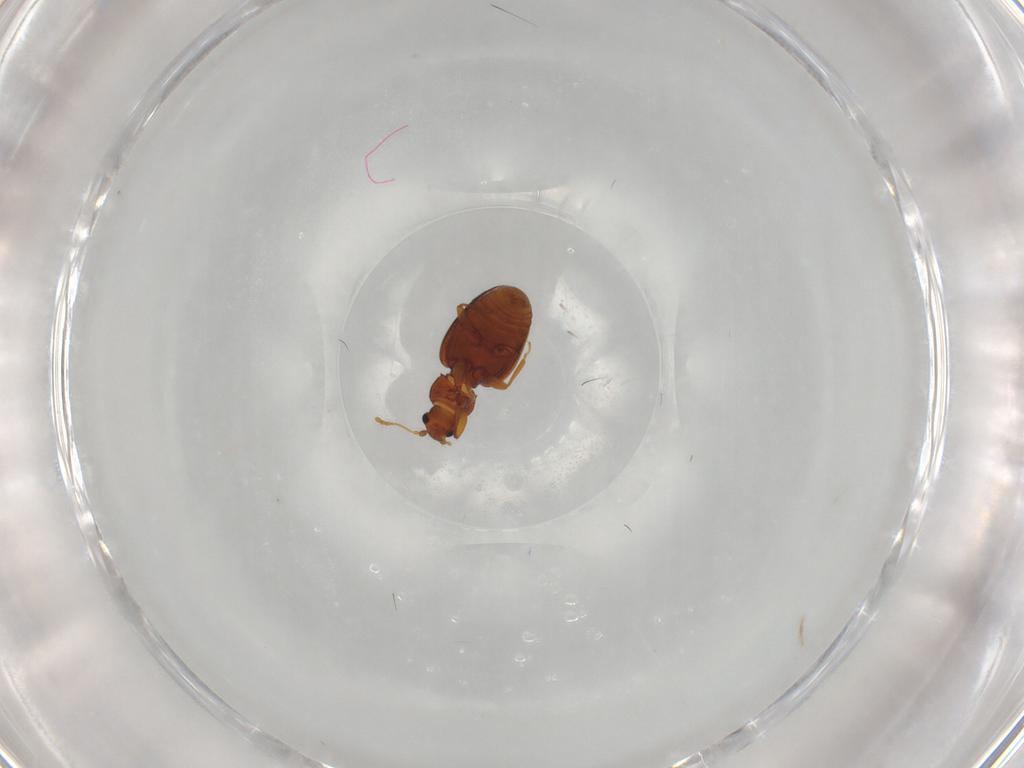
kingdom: Animalia
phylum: Arthropoda
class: Insecta
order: Coleoptera
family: Latridiidae
